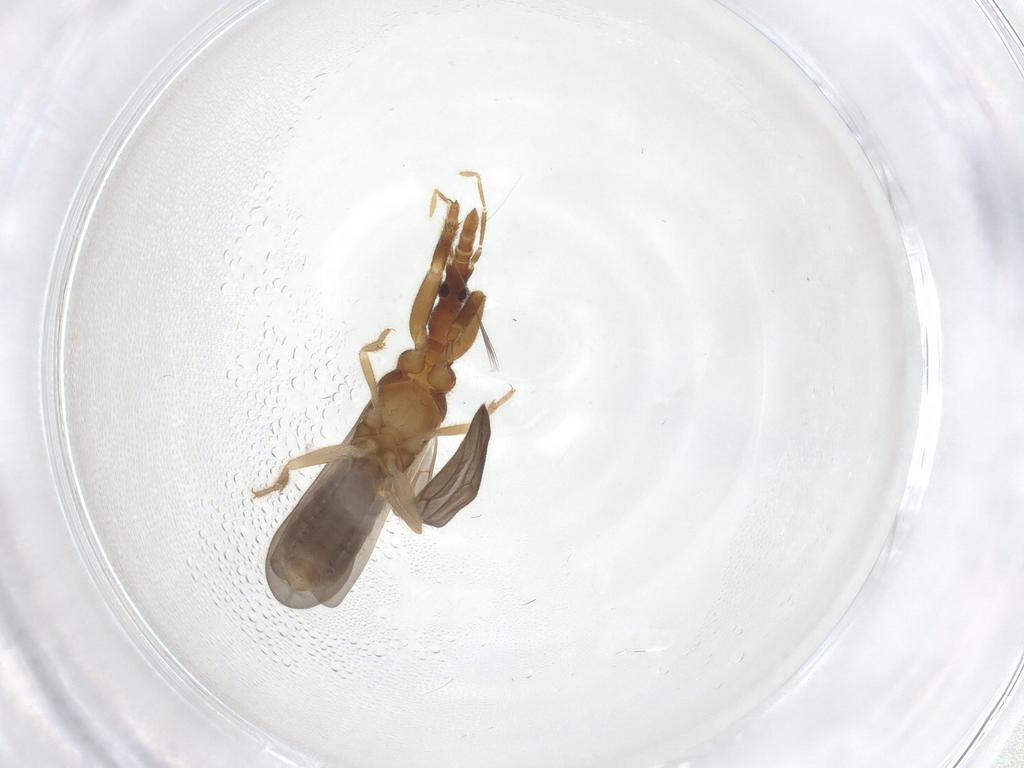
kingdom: Animalia
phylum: Arthropoda
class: Insecta
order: Hemiptera
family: Enicocephalidae
